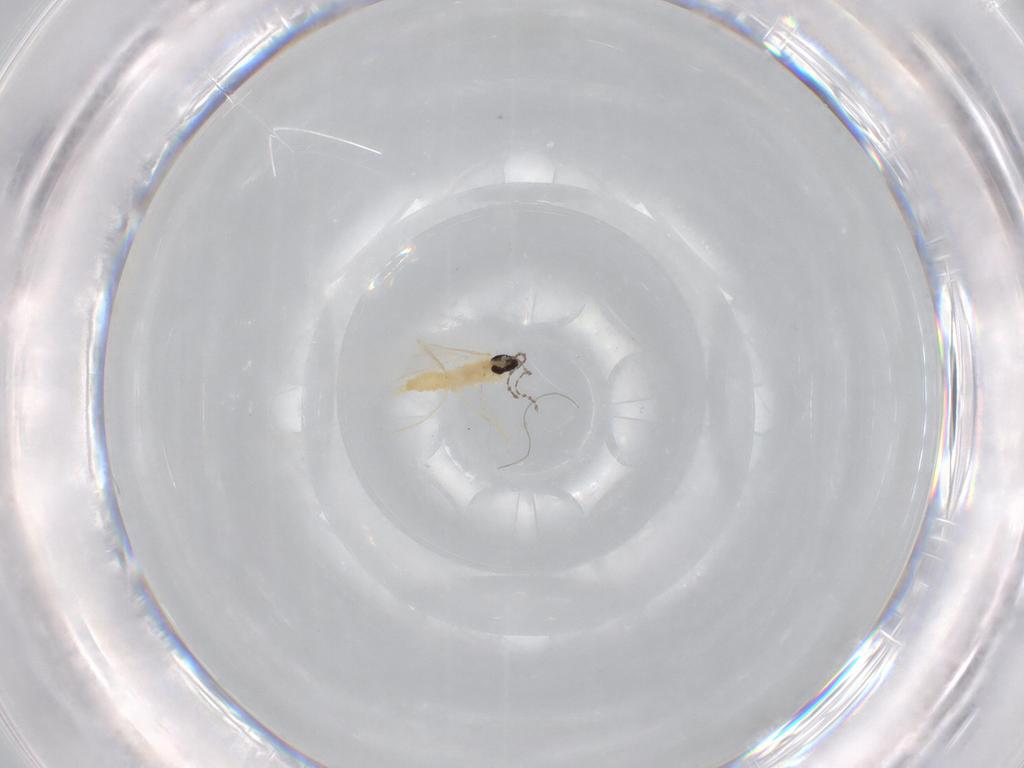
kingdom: Animalia
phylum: Arthropoda
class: Insecta
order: Diptera
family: Cecidomyiidae
